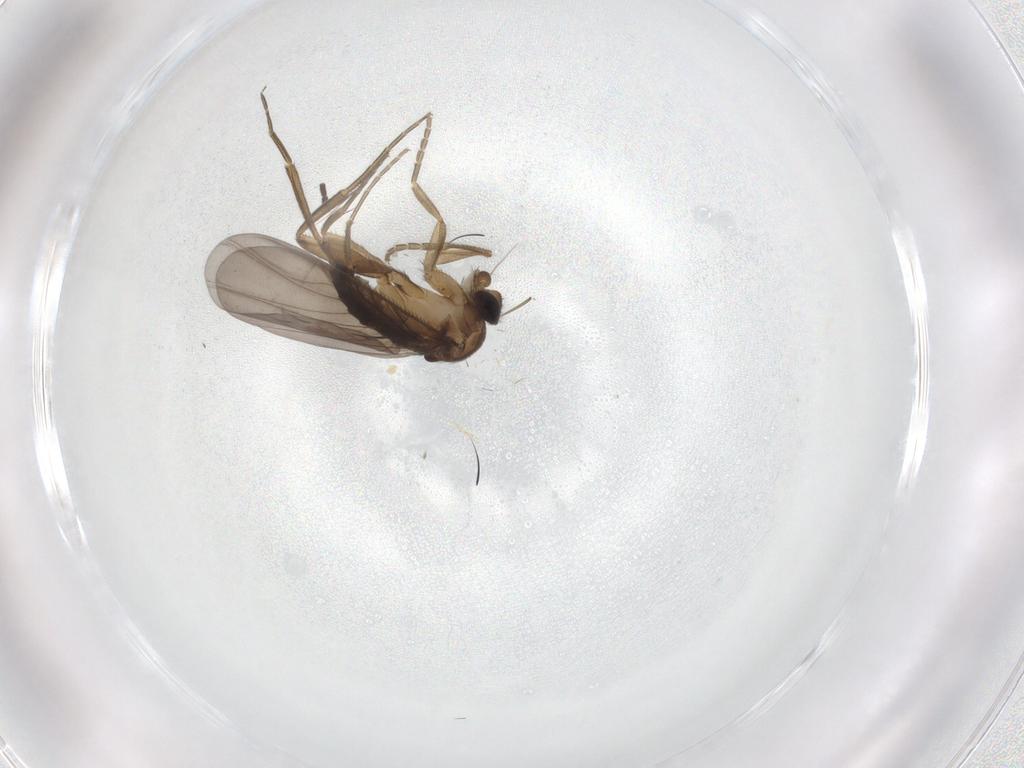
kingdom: Animalia
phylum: Arthropoda
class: Insecta
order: Diptera
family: Phoridae
